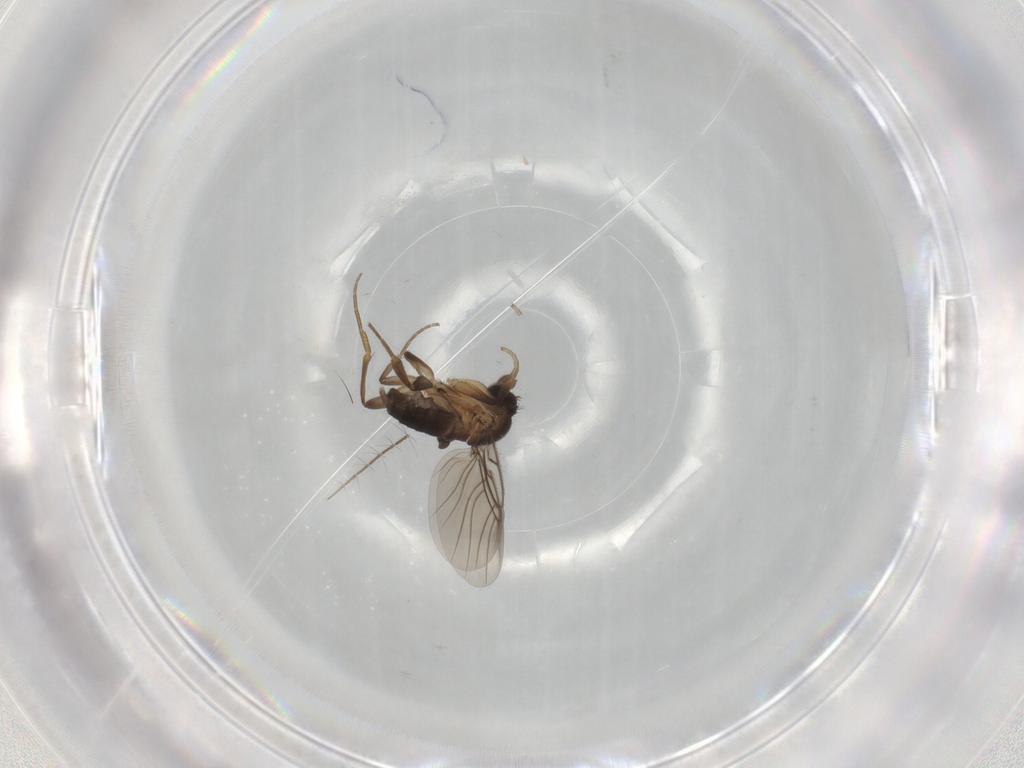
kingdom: Animalia
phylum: Arthropoda
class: Insecta
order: Diptera
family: Phoridae
